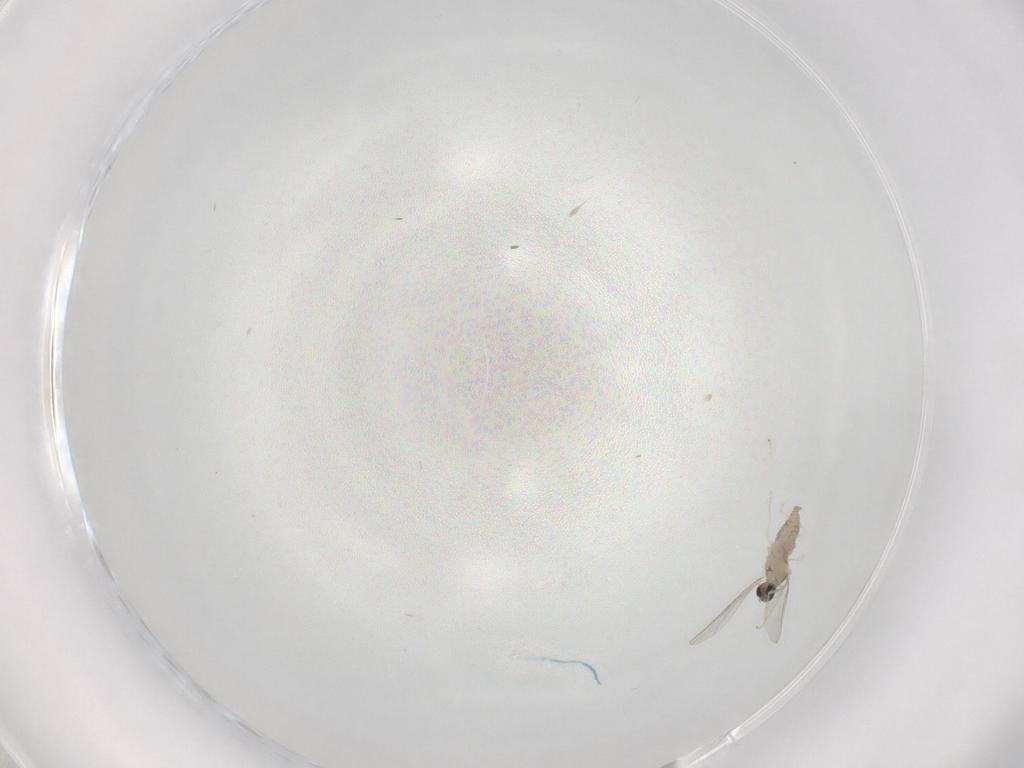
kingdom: Animalia
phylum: Arthropoda
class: Insecta
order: Diptera
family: Cecidomyiidae
